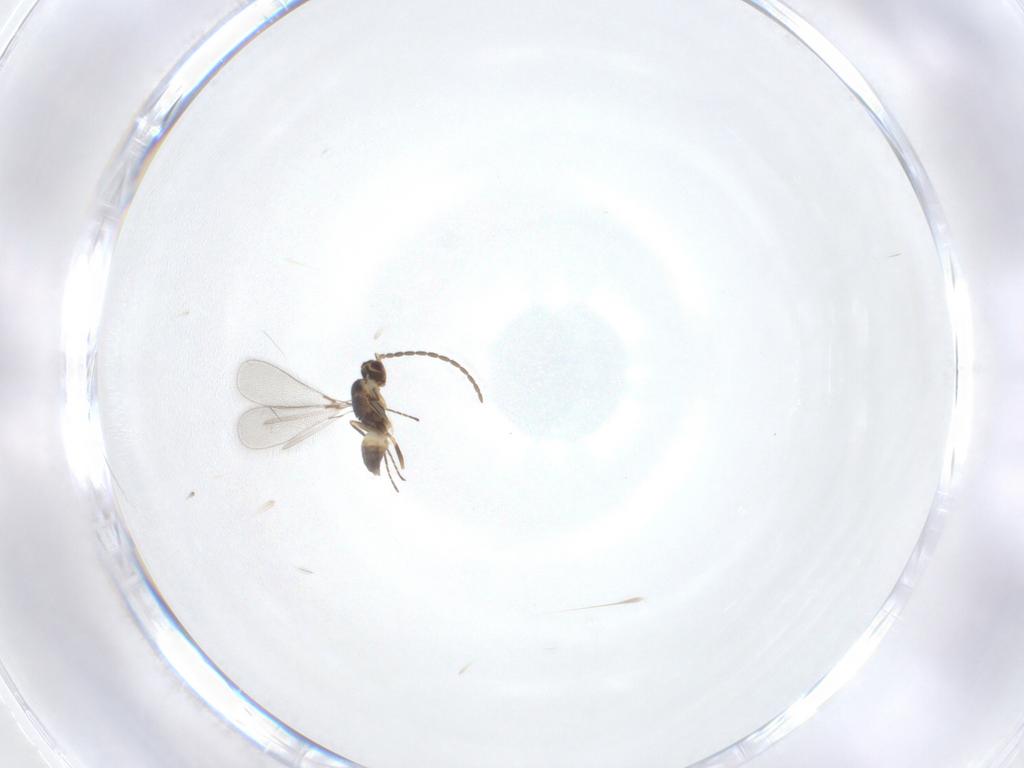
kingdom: Animalia
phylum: Arthropoda
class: Insecta
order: Hymenoptera
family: Mymaridae
